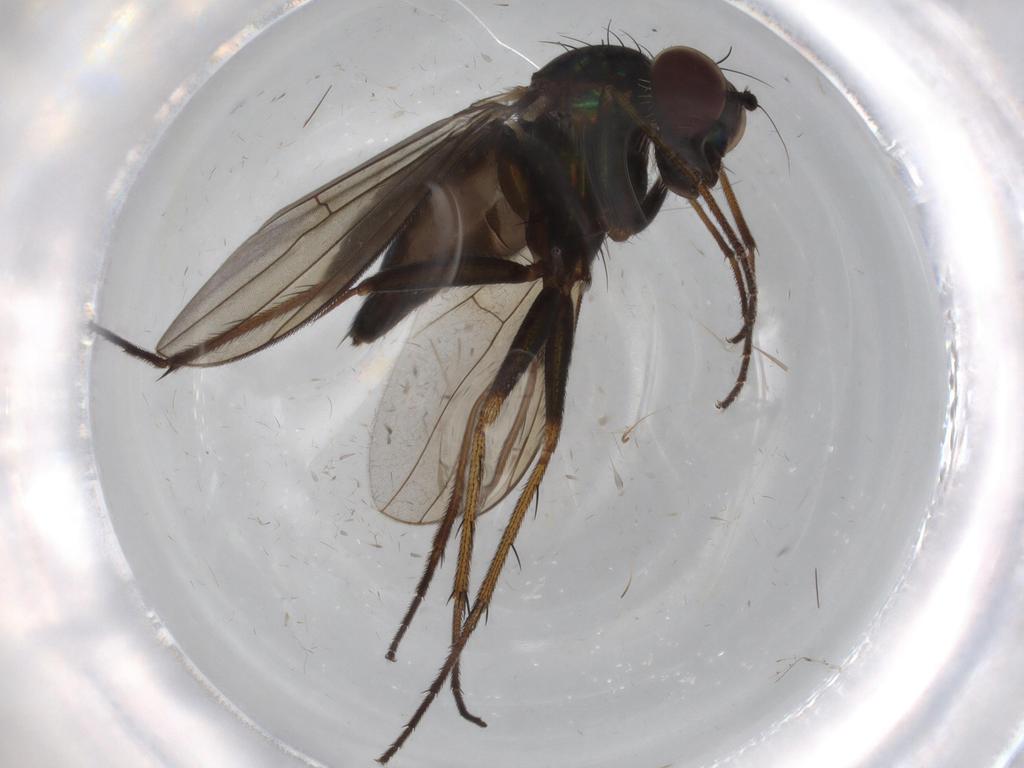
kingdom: Animalia
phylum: Arthropoda
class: Insecta
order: Diptera
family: Dolichopodidae
